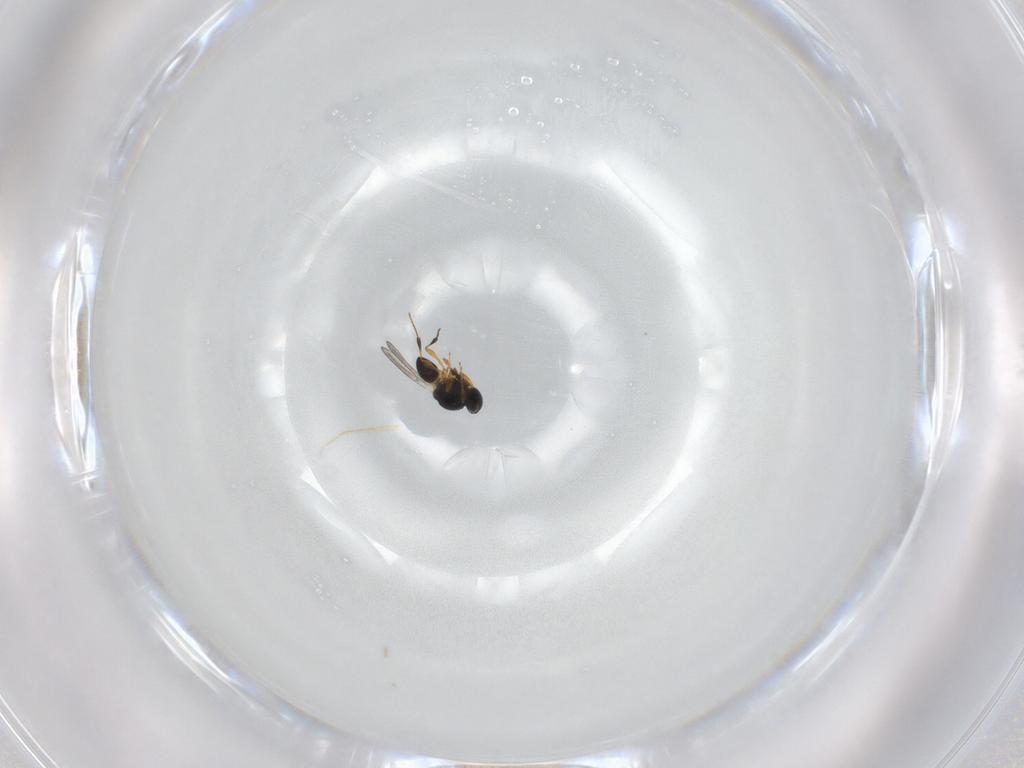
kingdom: Animalia
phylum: Arthropoda
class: Insecta
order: Hymenoptera
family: Platygastridae
